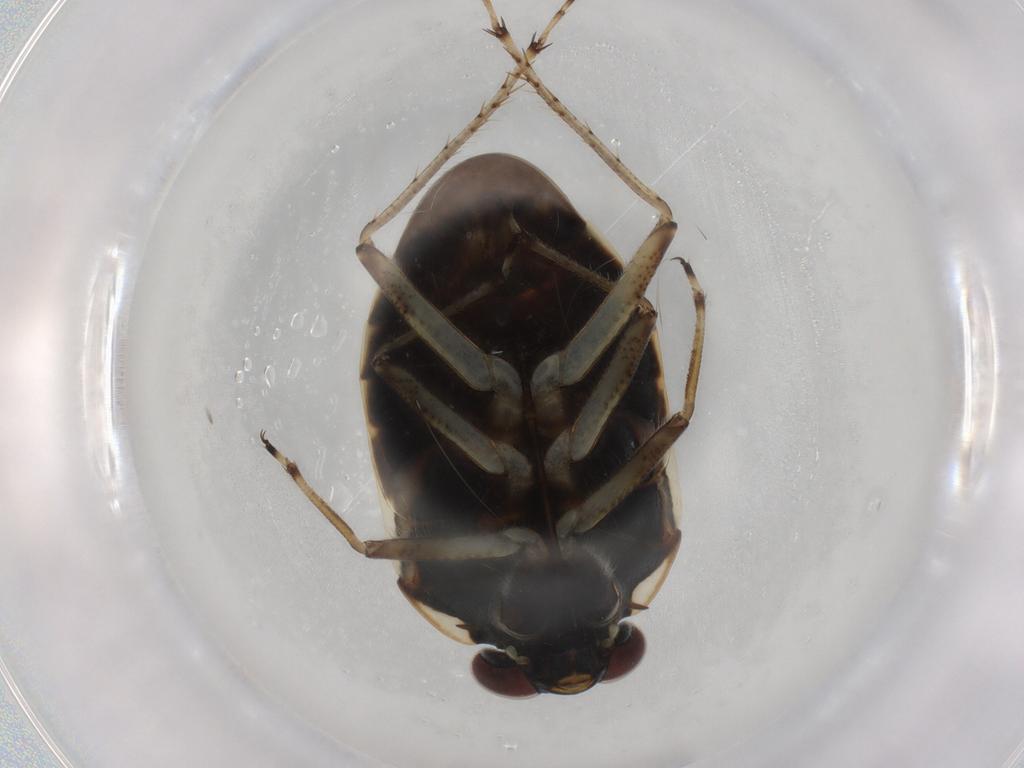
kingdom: Animalia
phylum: Arthropoda
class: Insecta
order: Hemiptera
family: Ochteridae
